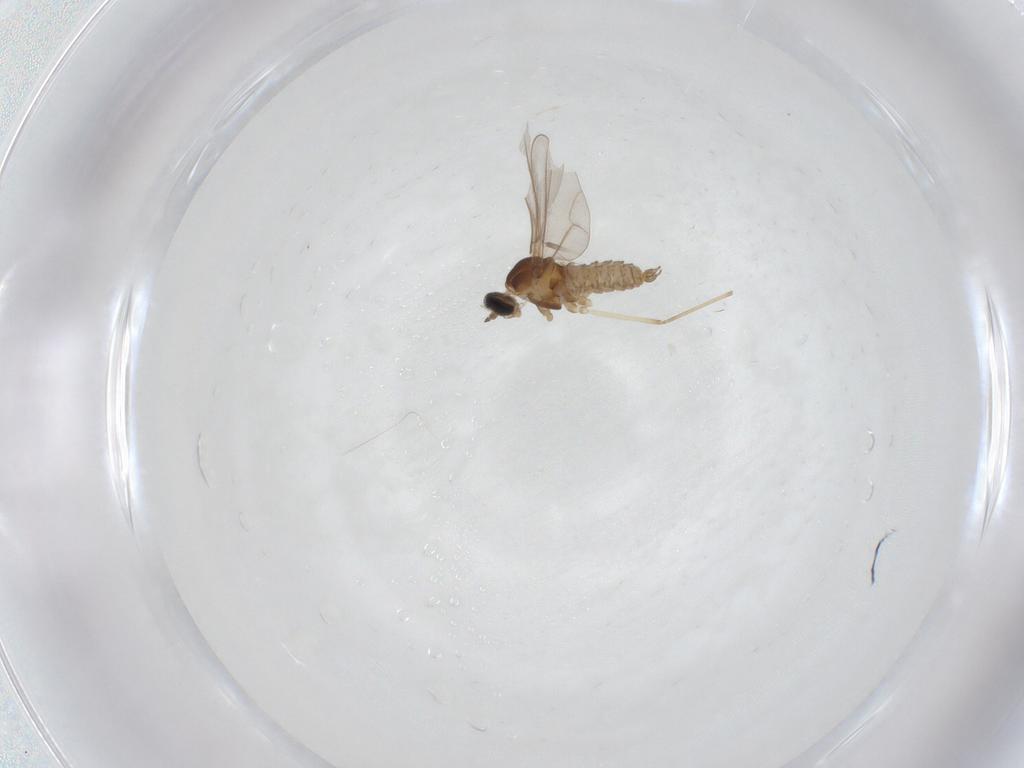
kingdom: Animalia
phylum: Arthropoda
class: Insecta
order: Diptera
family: Cecidomyiidae
